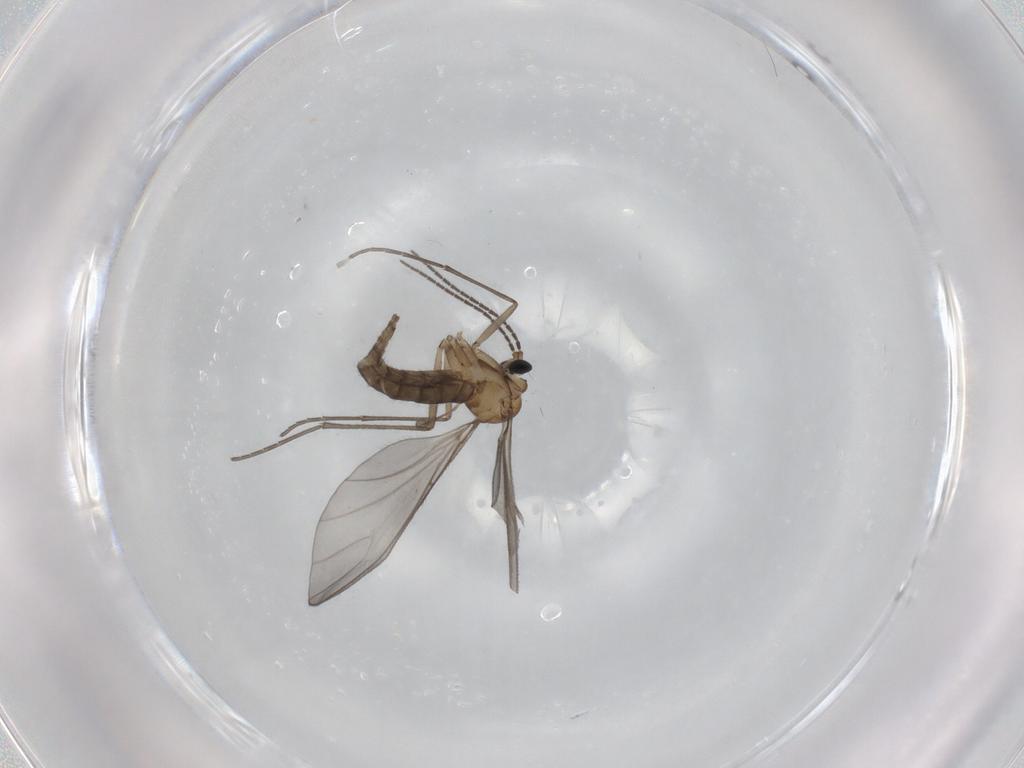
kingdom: Animalia
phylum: Arthropoda
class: Insecta
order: Diptera
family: Sciaridae
